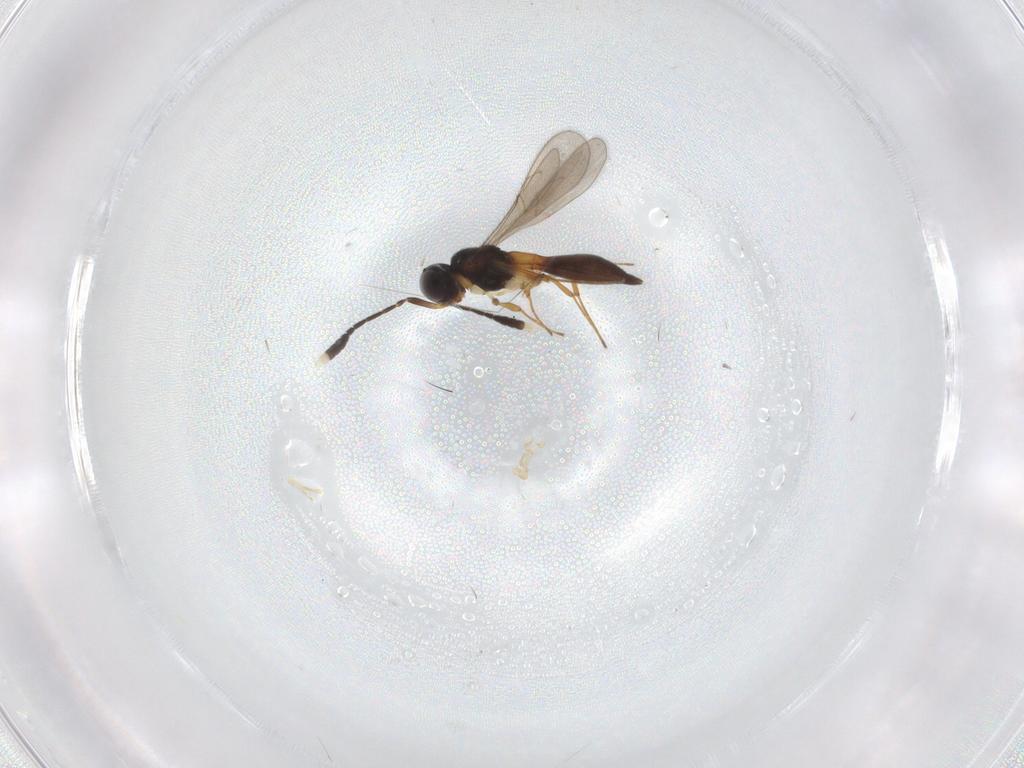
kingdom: Animalia
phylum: Arthropoda
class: Insecta
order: Hymenoptera
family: Scelionidae
